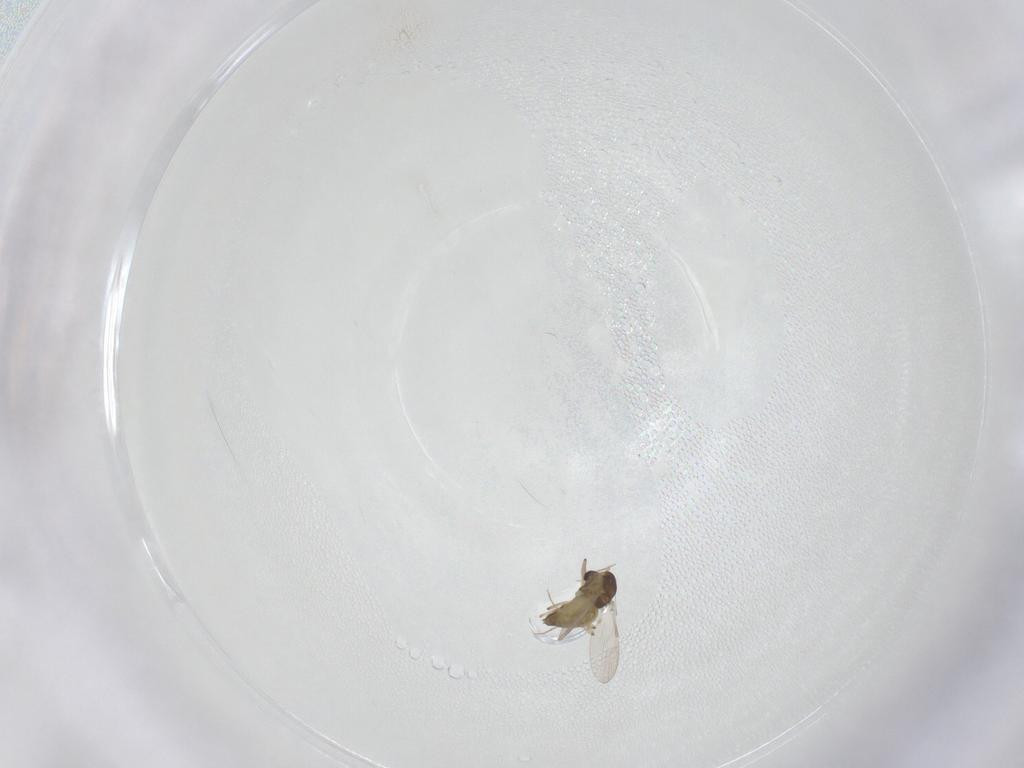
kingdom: Animalia
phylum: Arthropoda
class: Insecta
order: Diptera
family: Chironomidae
